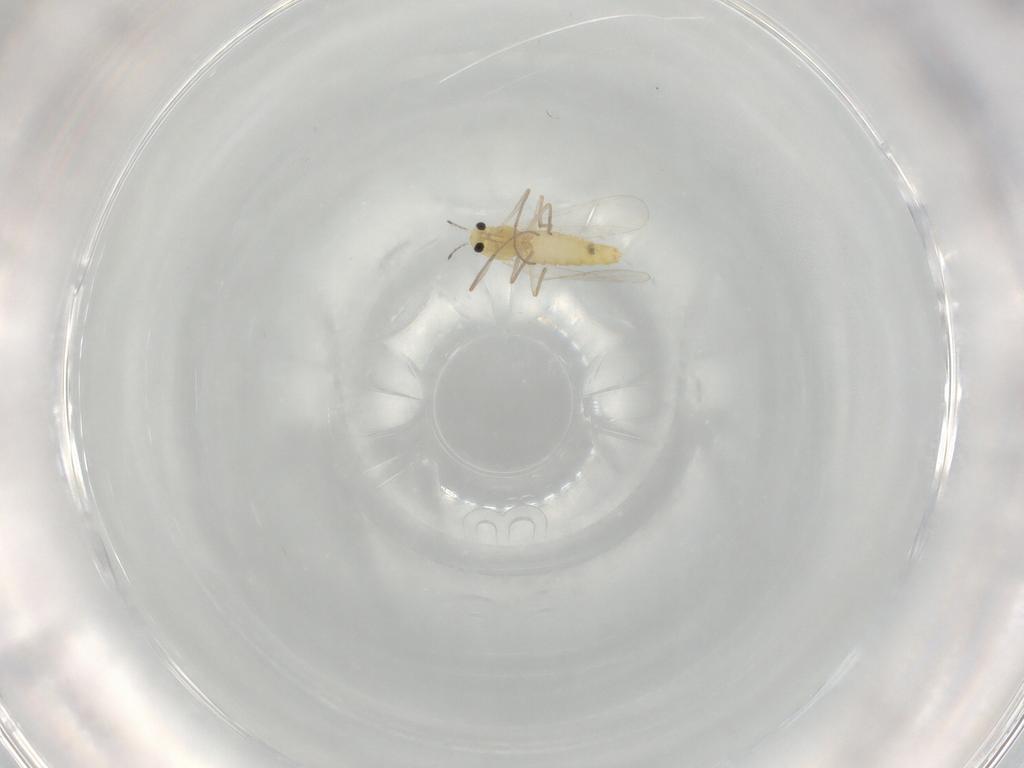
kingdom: Animalia
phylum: Arthropoda
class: Insecta
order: Diptera
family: Chironomidae
